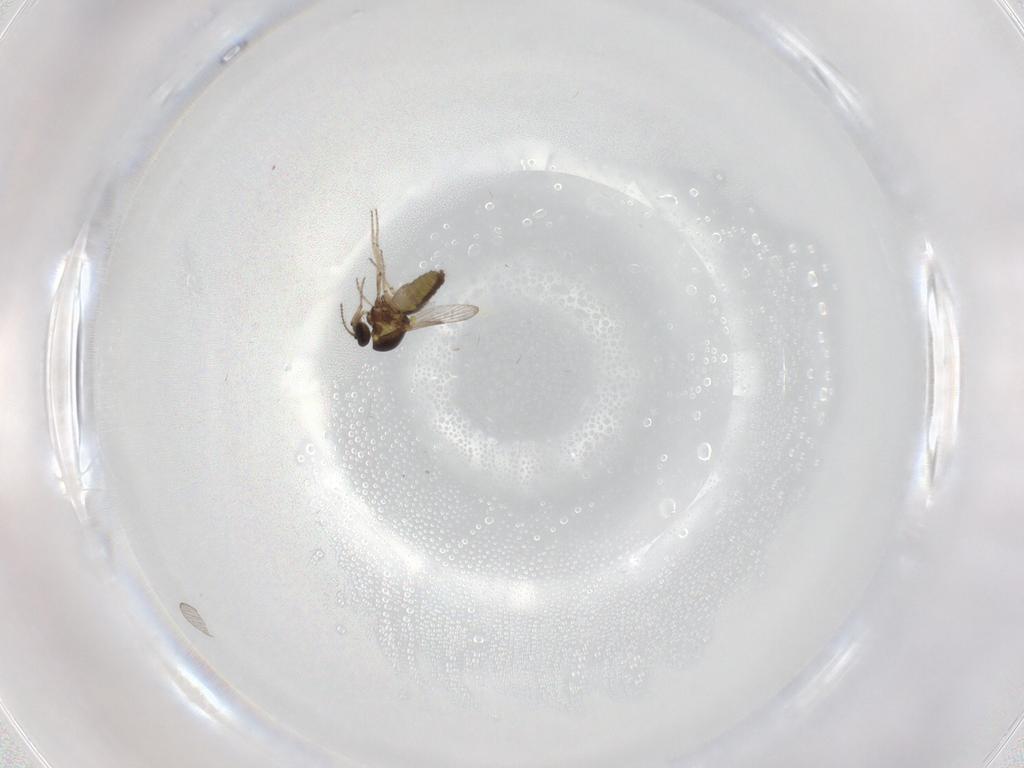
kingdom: Animalia
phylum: Arthropoda
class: Insecta
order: Diptera
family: Ceratopogonidae
